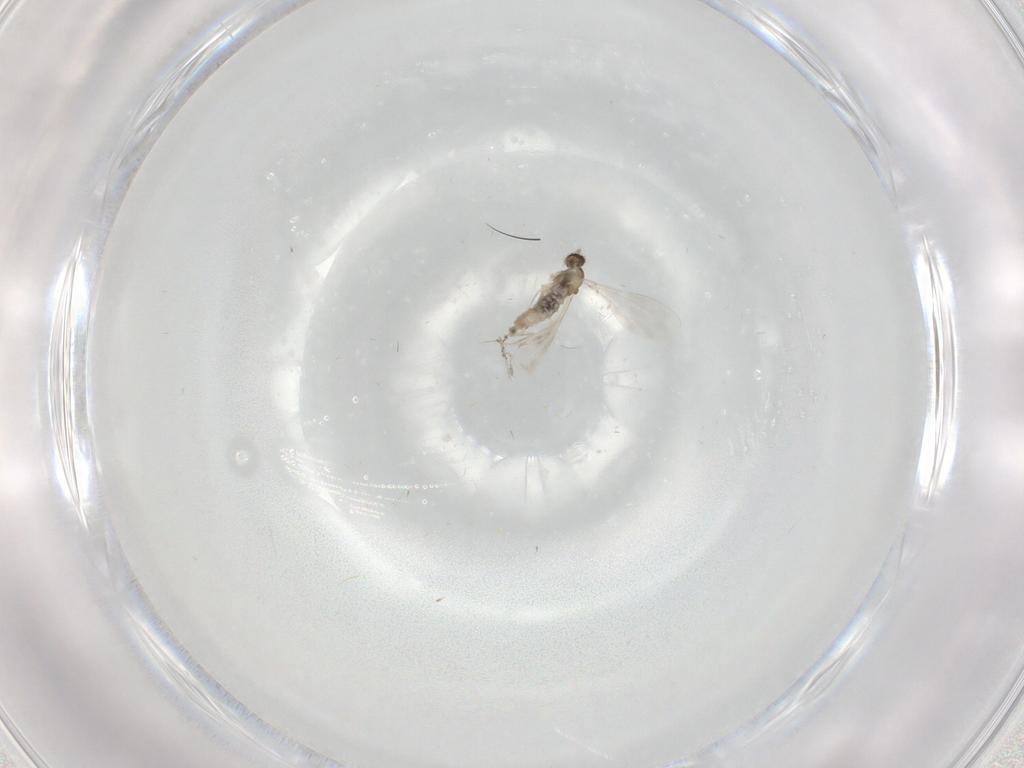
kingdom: Animalia
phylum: Arthropoda
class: Insecta
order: Diptera
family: Cecidomyiidae
